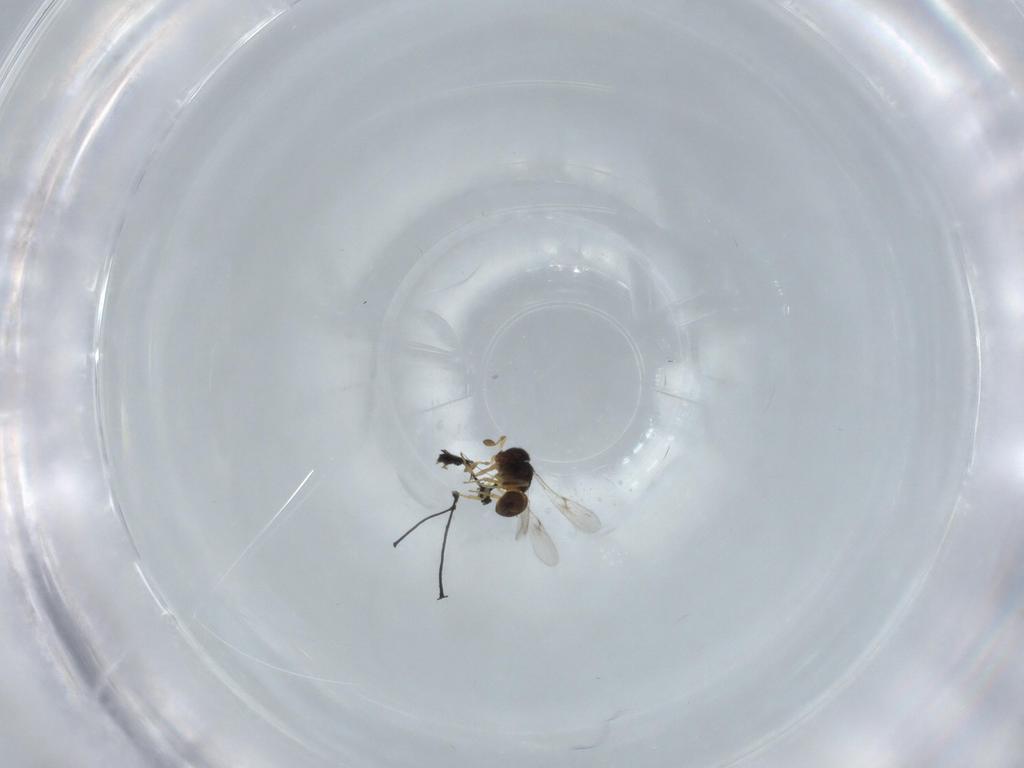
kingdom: Animalia
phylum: Arthropoda
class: Insecta
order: Hymenoptera
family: Scelionidae
